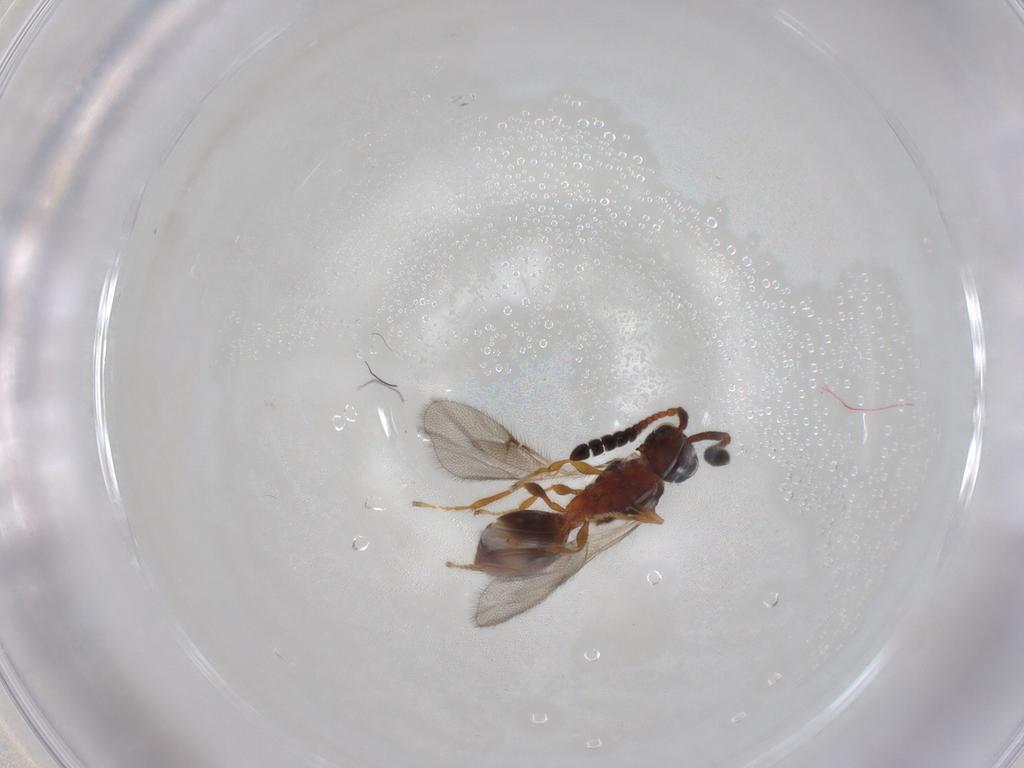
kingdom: Animalia
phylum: Arthropoda
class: Insecta
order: Hymenoptera
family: Diapriidae
